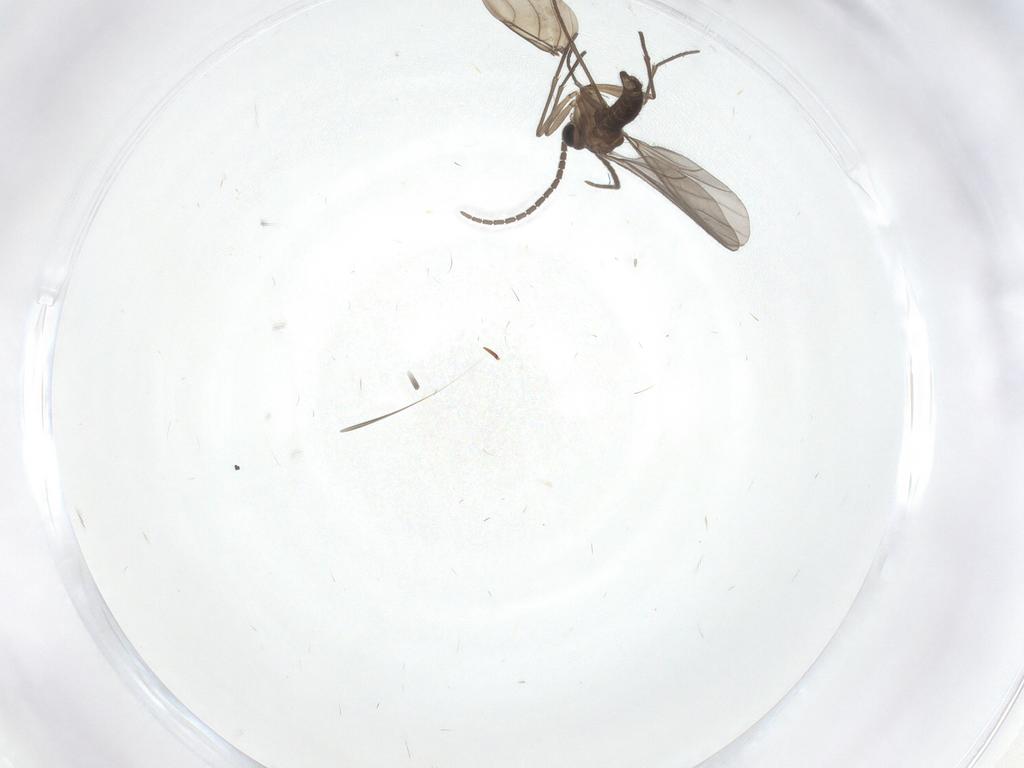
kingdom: Animalia
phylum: Arthropoda
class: Insecta
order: Diptera
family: Sciaridae
